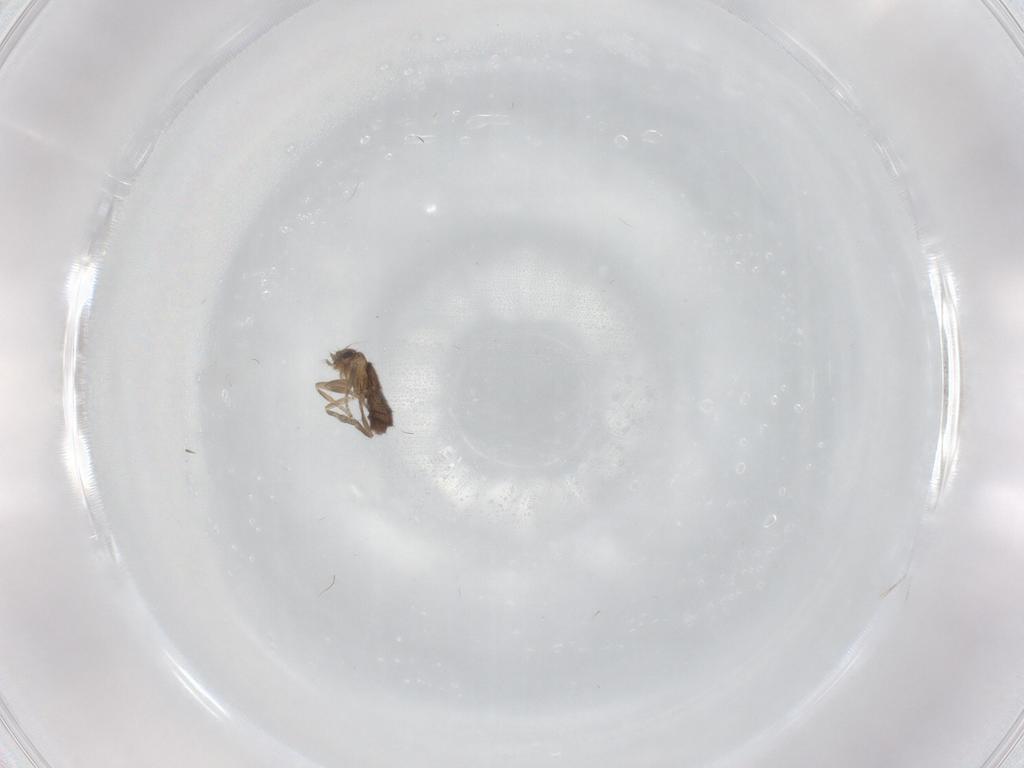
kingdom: Animalia
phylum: Arthropoda
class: Insecta
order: Diptera
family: Ceratopogonidae
